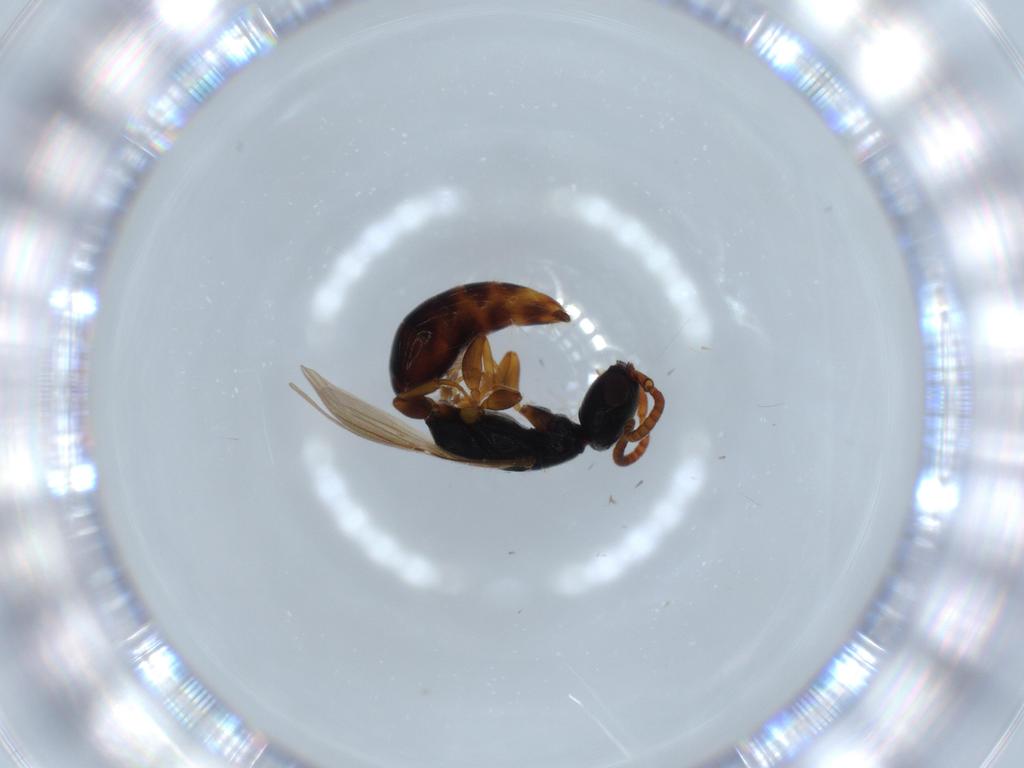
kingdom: Animalia
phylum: Arthropoda
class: Insecta
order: Hymenoptera
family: Bethylidae
